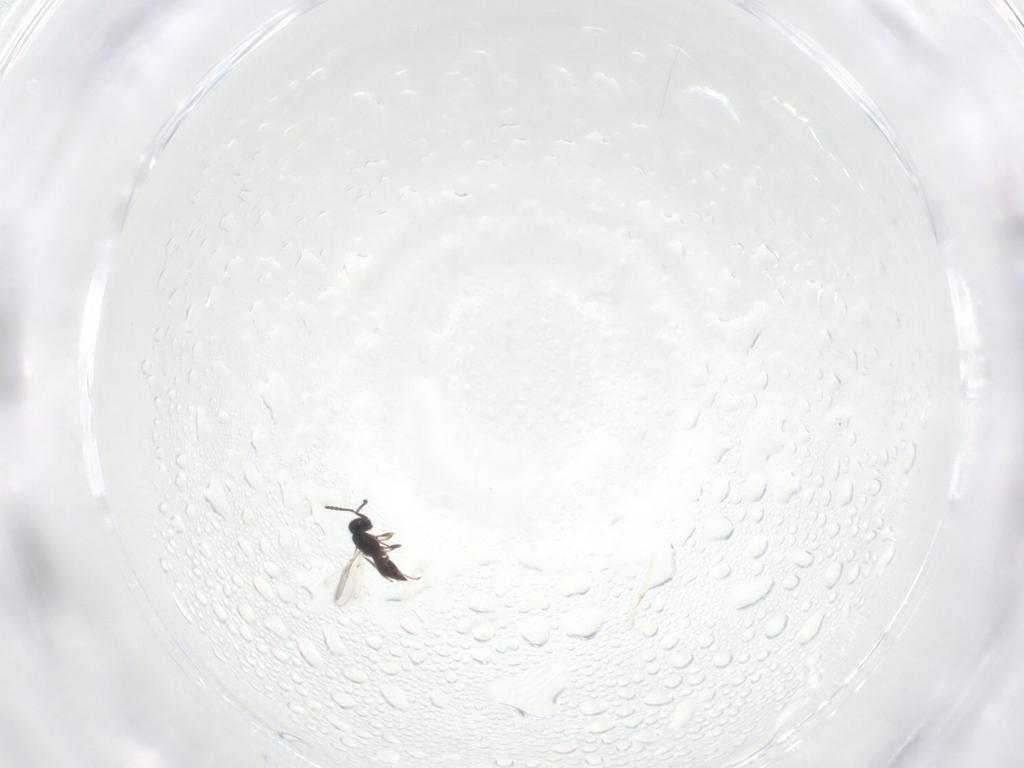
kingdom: Animalia
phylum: Arthropoda
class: Insecta
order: Hymenoptera
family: Scelionidae
